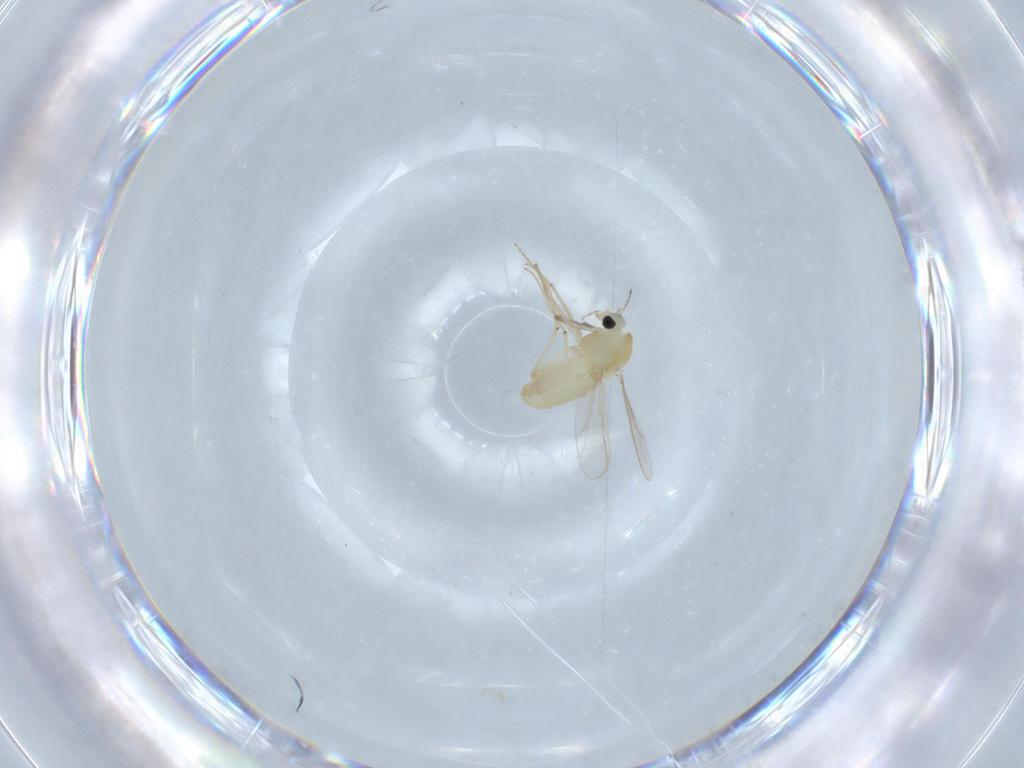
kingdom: Animalia
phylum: Arthropoda
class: Insecta
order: Diptera
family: Chironomidae
